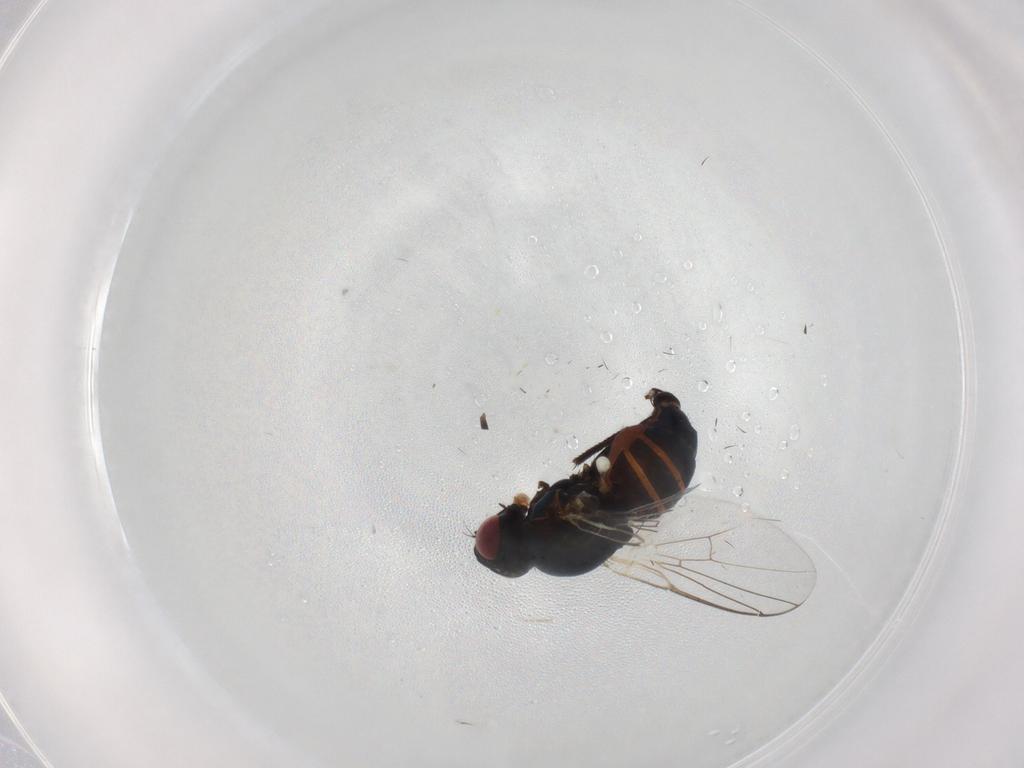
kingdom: Animalia
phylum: Arthropoda
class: Insecta
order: Diptera
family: Agromyzidae
